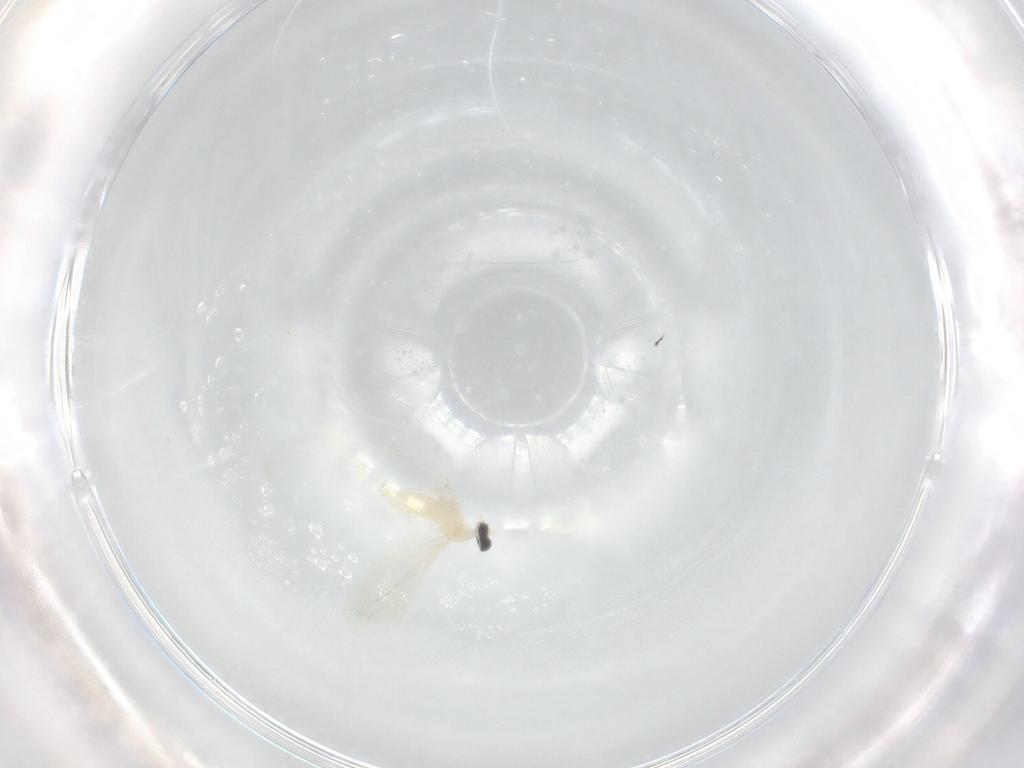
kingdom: Animalia
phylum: Arthropoda
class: Insecta
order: Diptera
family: Cecidomyiidae
